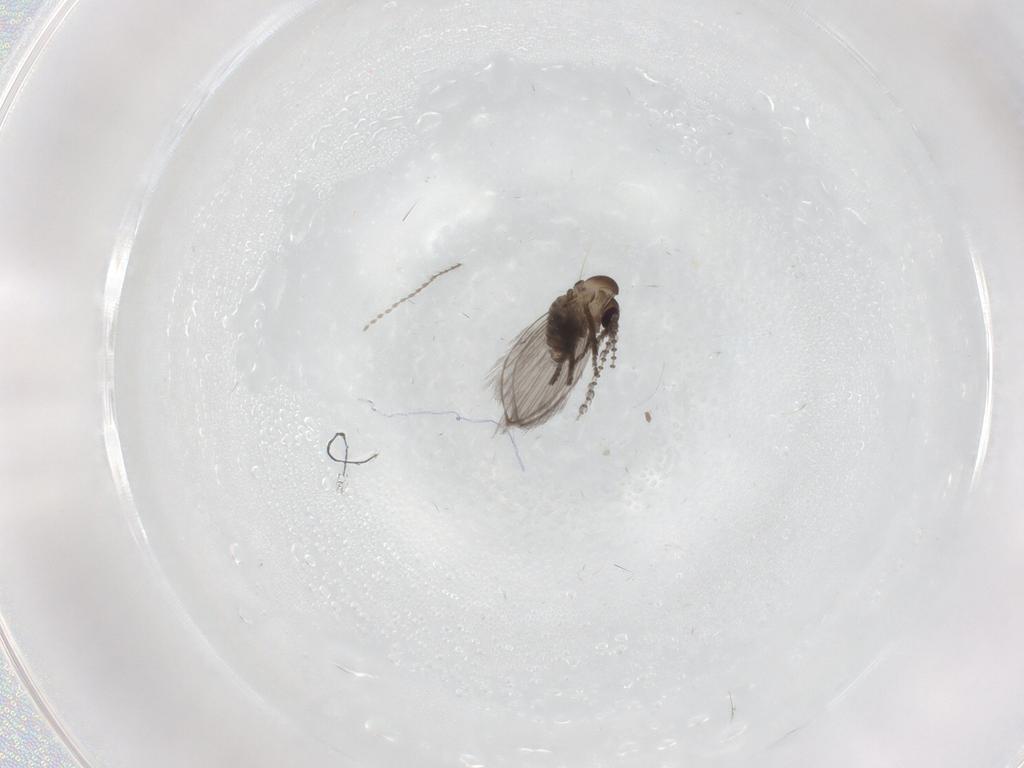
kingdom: Animalia
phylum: Arthropoda
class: Insecta
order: Diptera
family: Psychodidae
